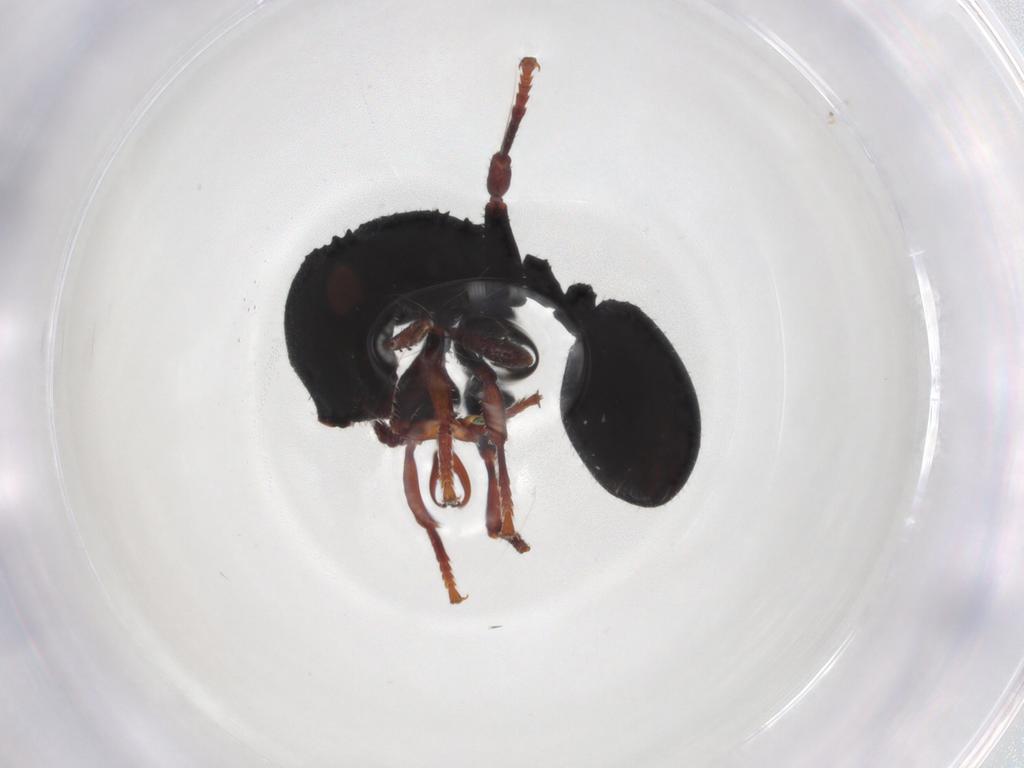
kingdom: Animalia
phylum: Arthropoda
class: Insecta
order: Hymenoptera
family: Formicidae
